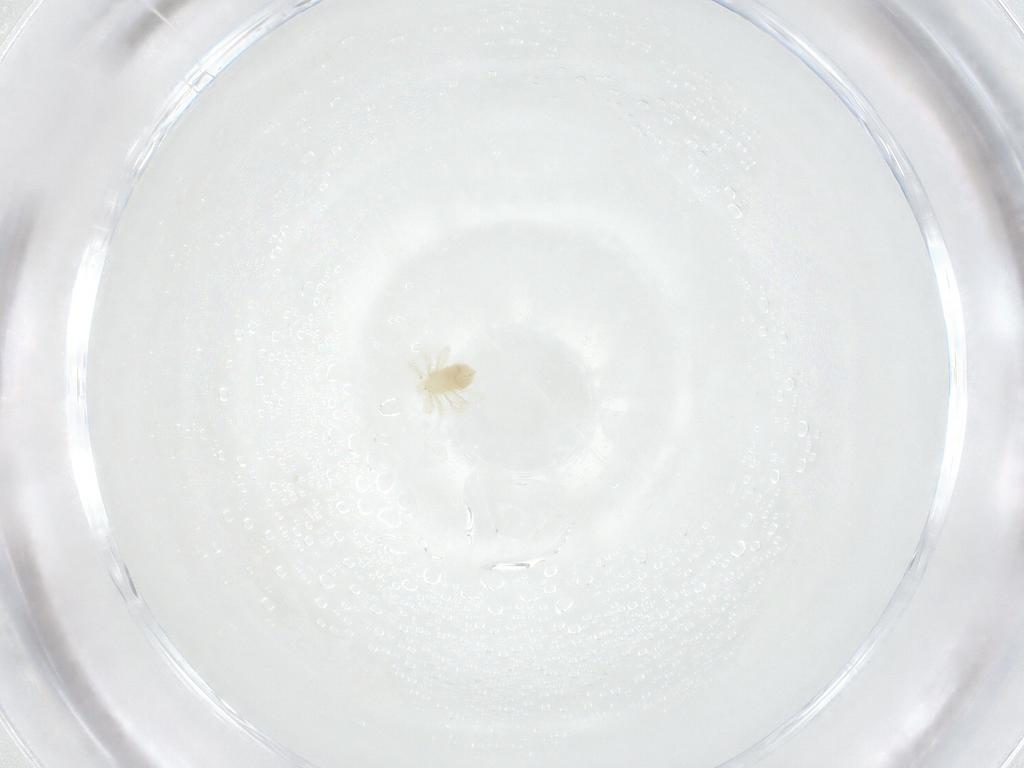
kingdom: Animalia
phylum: Arthropoda
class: Arachnida
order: Trombidiformes
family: Anystidae
